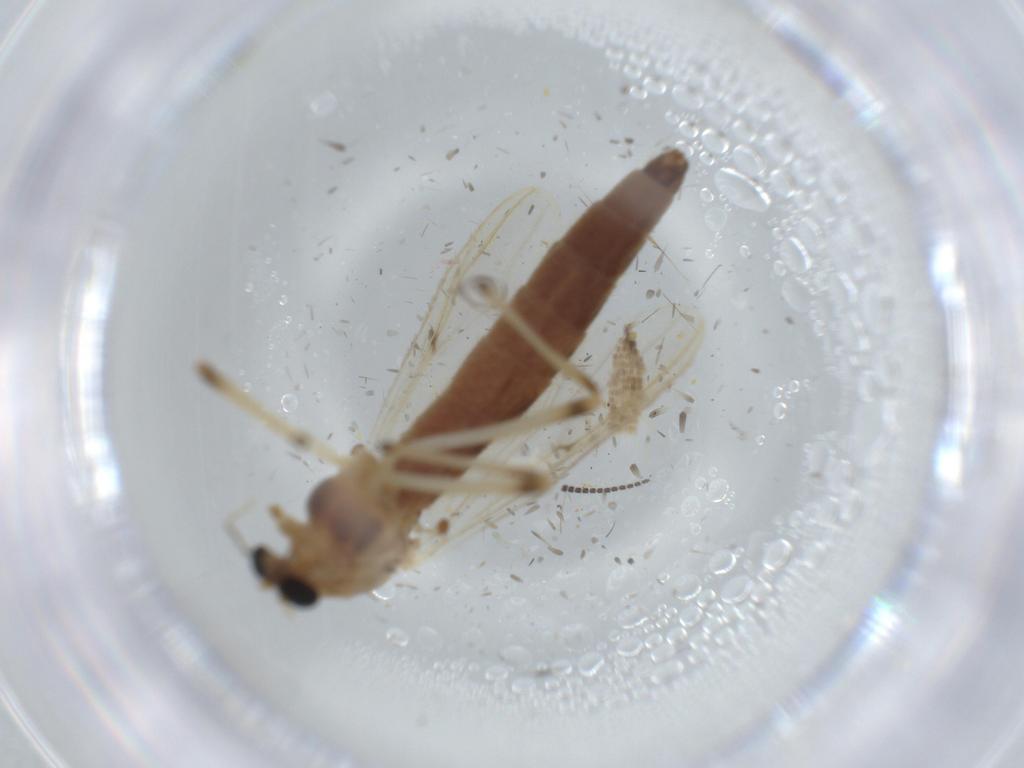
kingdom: Animalia
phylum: Arthropoda
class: Insecta
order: Diptera
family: Chironomidae
